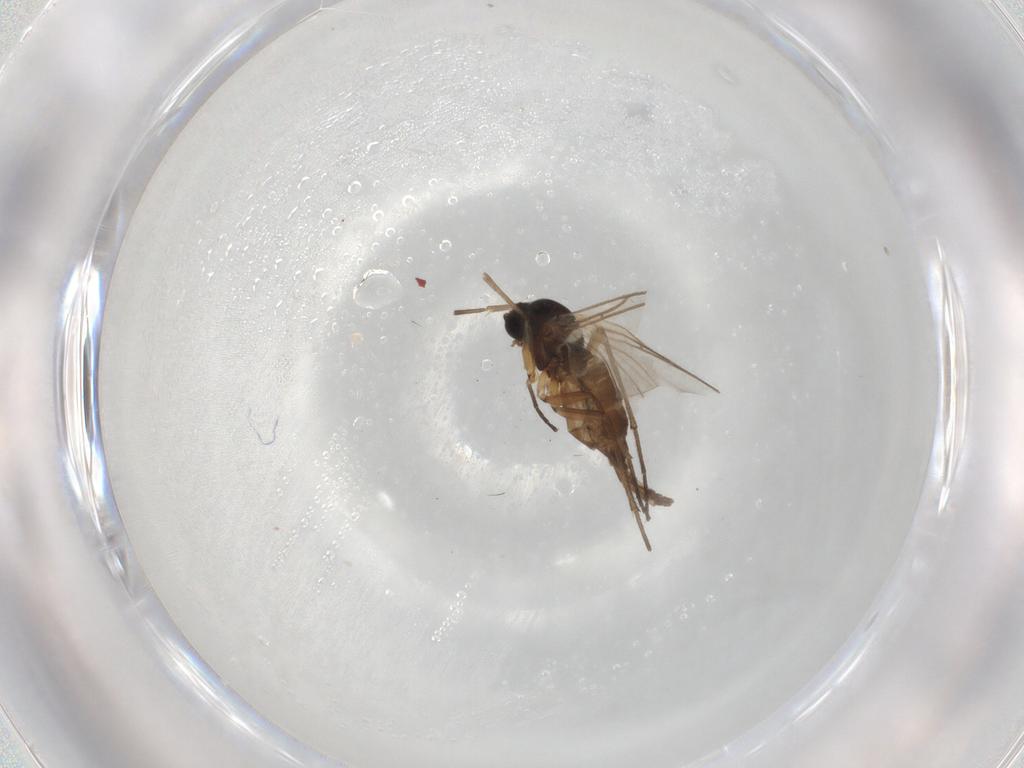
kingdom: Animalia
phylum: Arthropoda
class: Insecta
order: Diptera
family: Sciaridae
